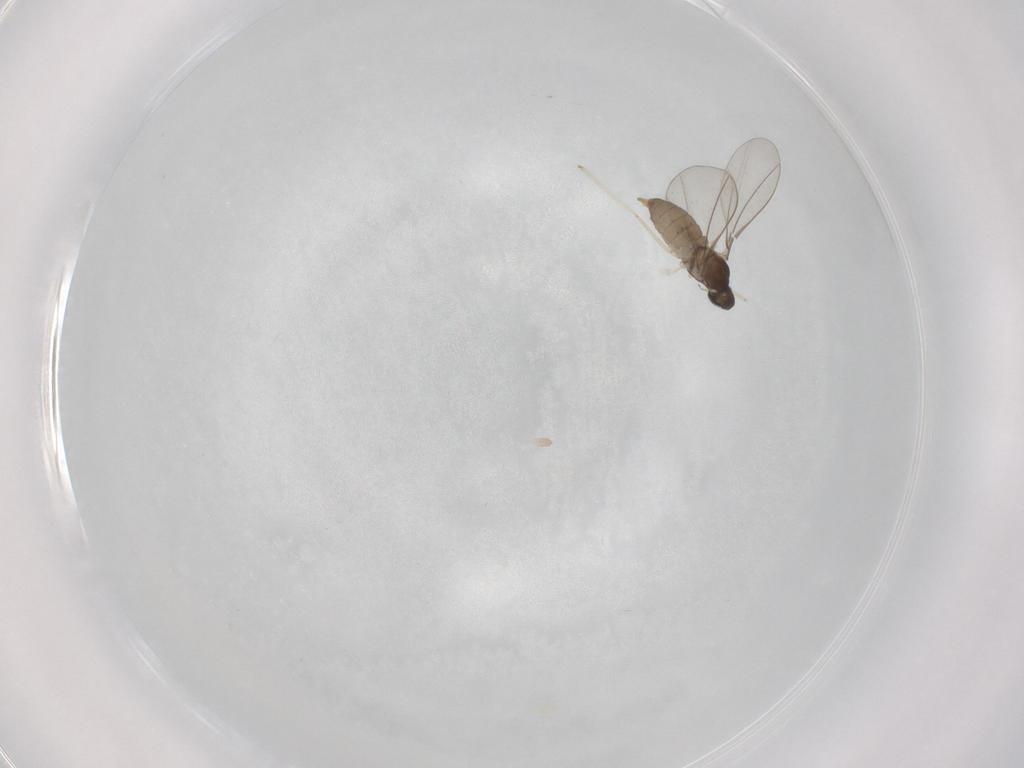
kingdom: Animalia
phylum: Arthropoda
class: Insecta
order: Diptera
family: Cecidomyiidae
